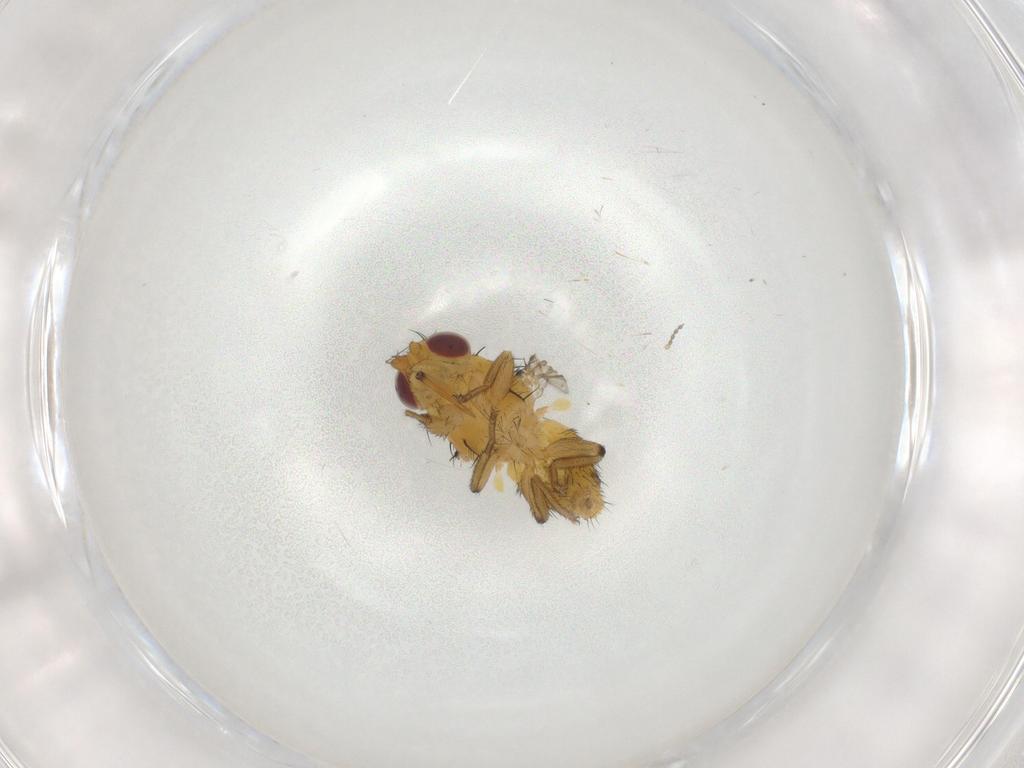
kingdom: Animalia
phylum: Arthropoda
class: Insecta
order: Diptera
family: Milichiidae
